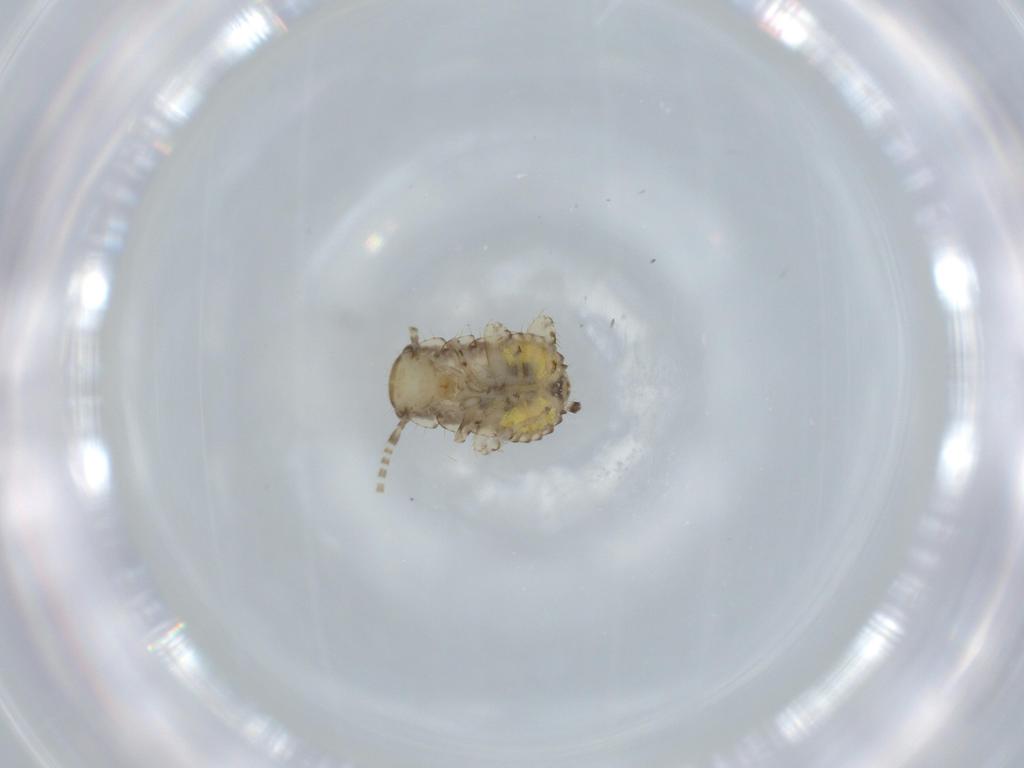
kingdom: Animalia
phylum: Arthropoda
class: Insecta
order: Blattodea
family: Ectobiidae
